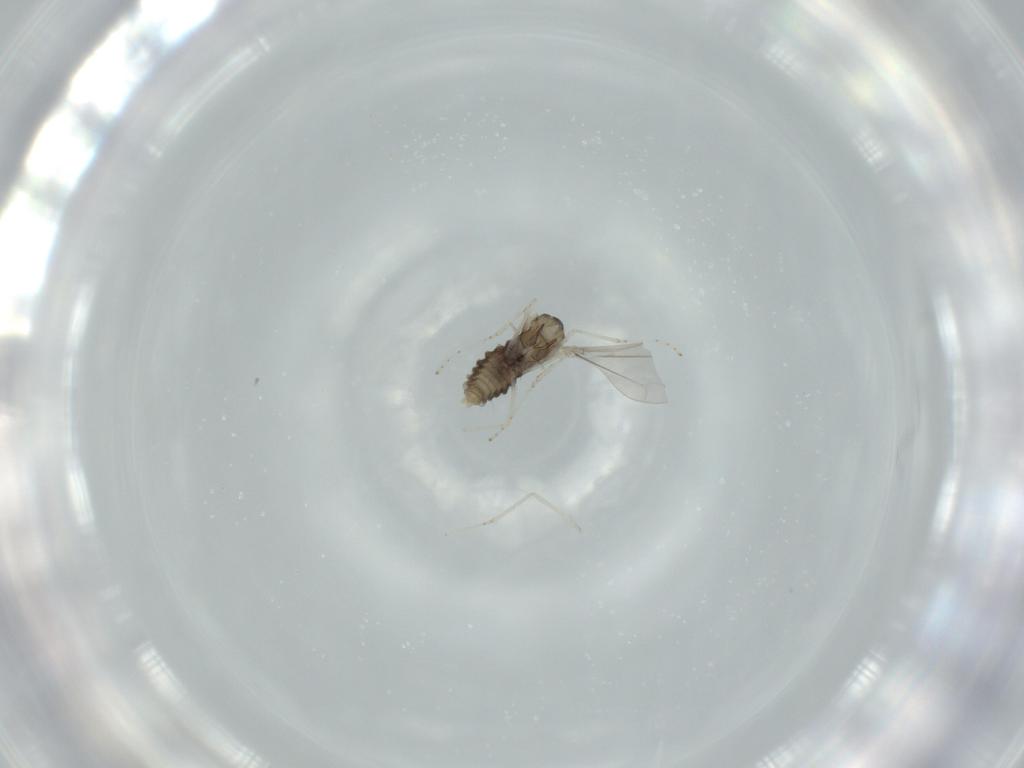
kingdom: Animalia
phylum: Arthropoda
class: Insecta
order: Diptera
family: Cecidomyiidae
